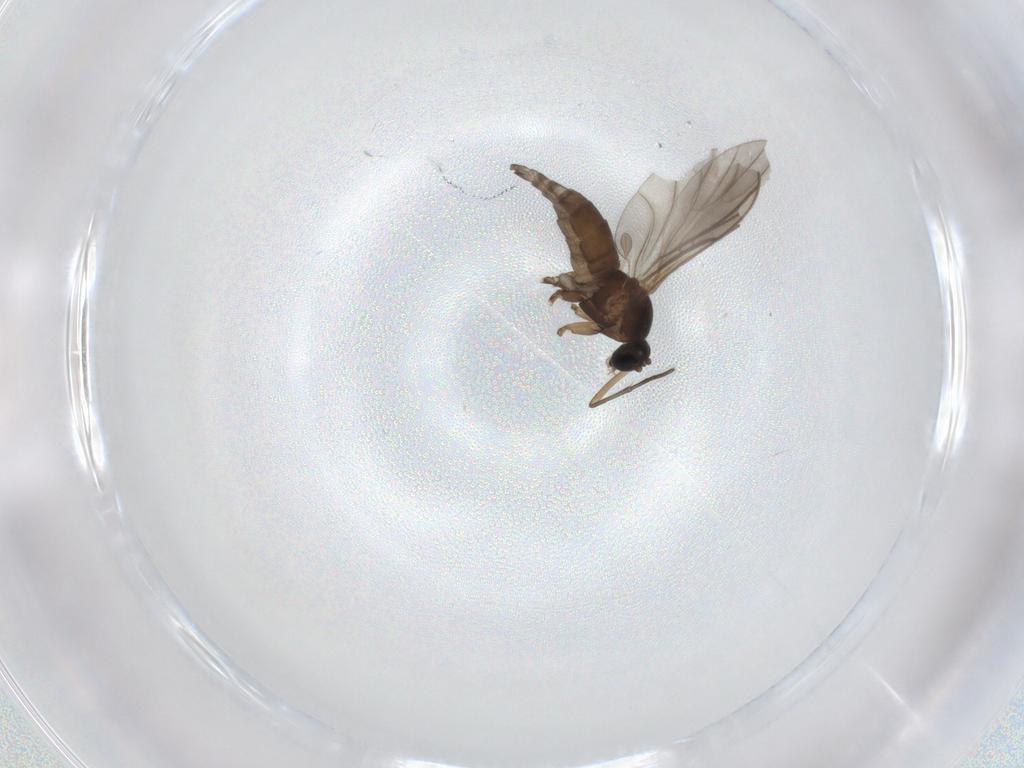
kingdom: Animalia
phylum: Arthropoda
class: Insecta
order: Diptera
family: Sciaridae
